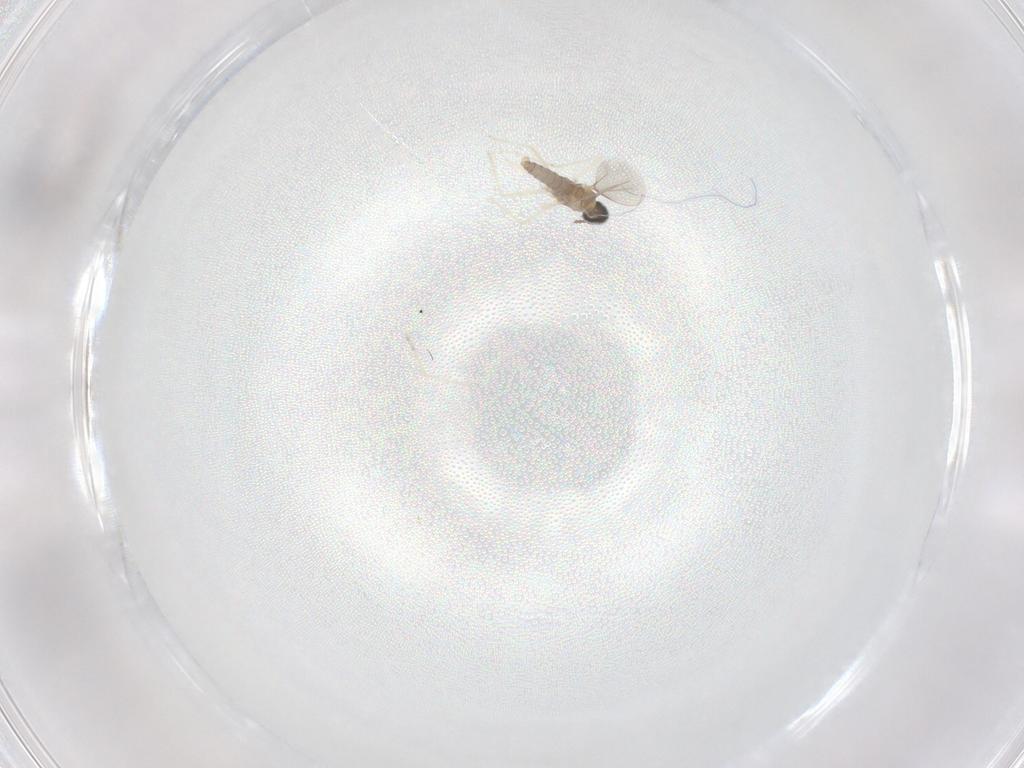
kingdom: Animalia
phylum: Arthropoda
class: Insecta
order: Diptera
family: Cecidomyiidae
